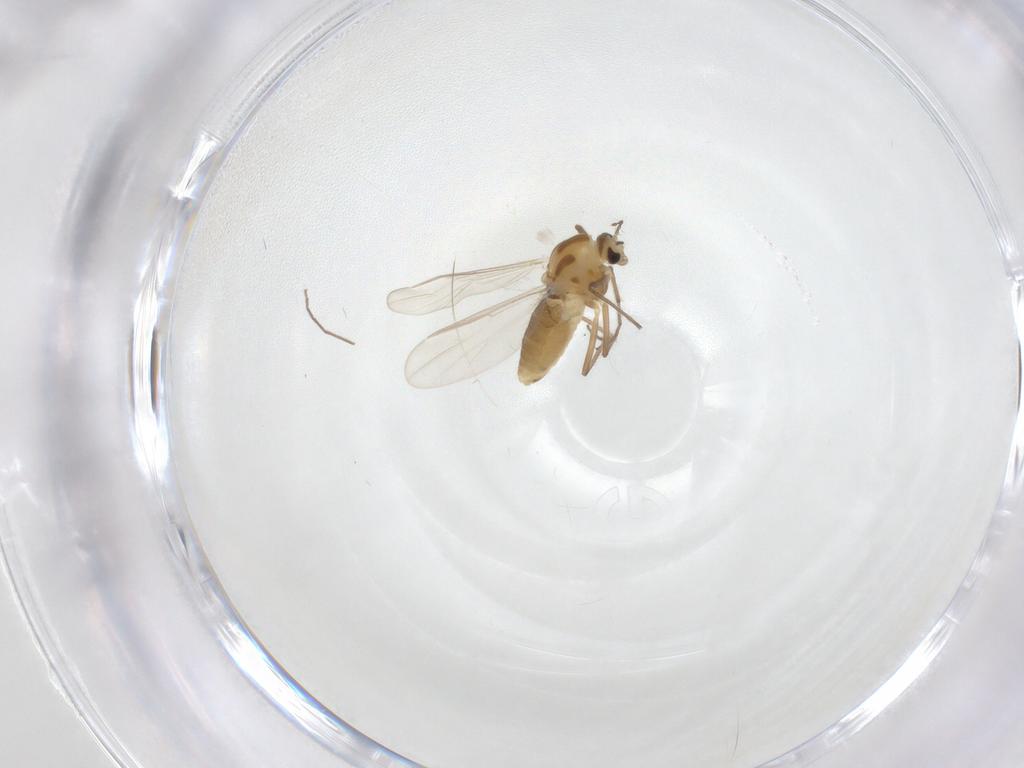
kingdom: Animalia
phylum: Arthropoda
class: Insecta
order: Diptera
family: Chironomidae
